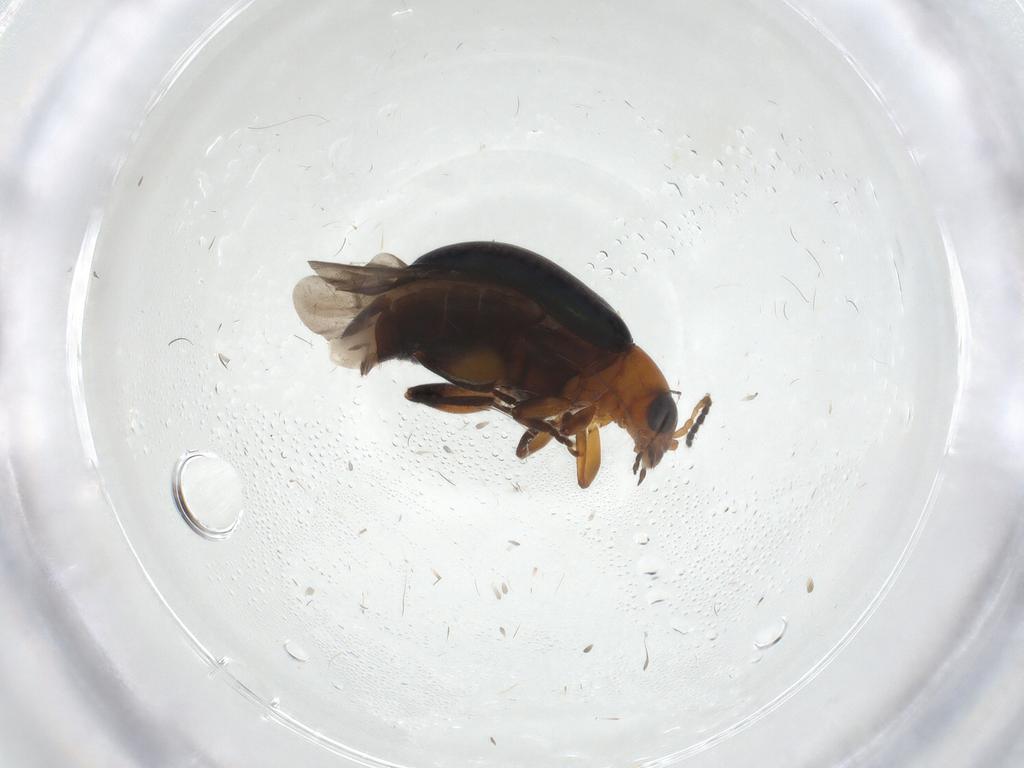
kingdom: Animalia
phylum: Arthropoda
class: Insecta
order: Coleoptera
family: Chrysomelidae
